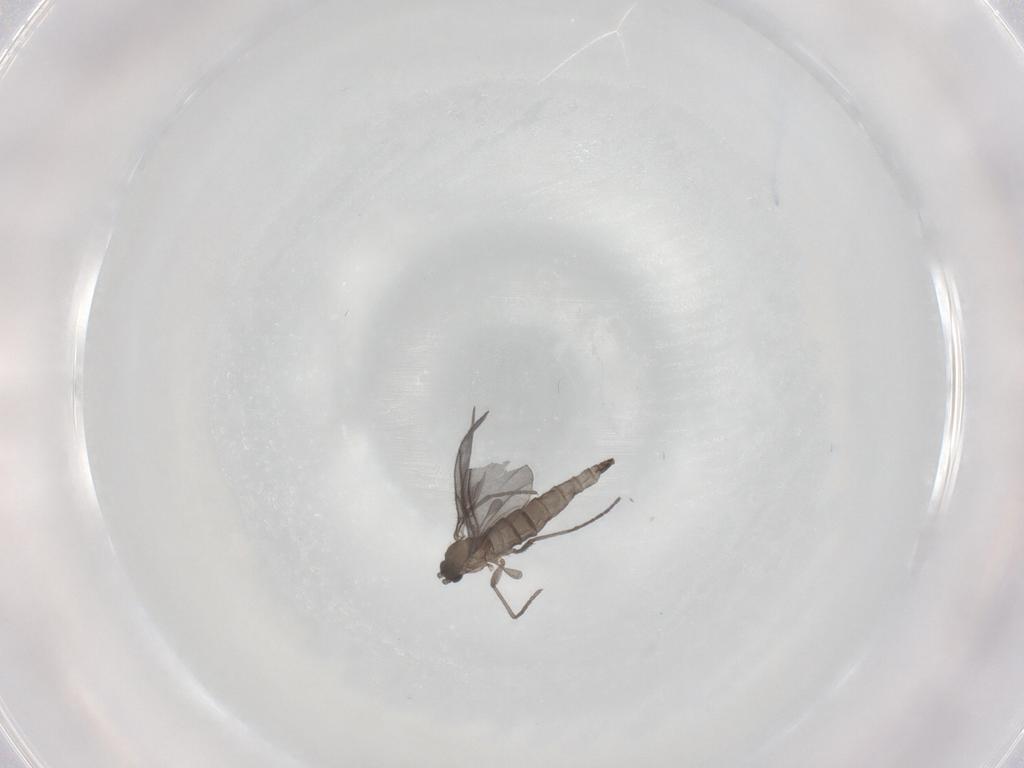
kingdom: Animalia
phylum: Arthropoda
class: Insecta
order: Diptera
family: Sciaridae
